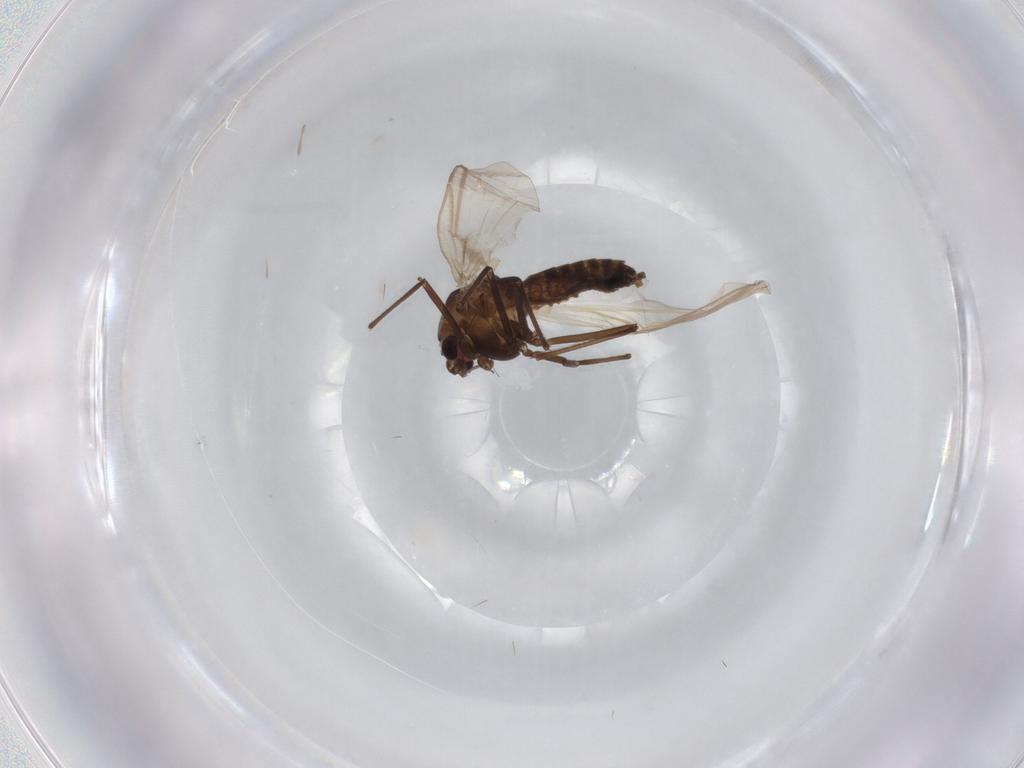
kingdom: Animalia
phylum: Arthropoda
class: Insecta
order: Diptera
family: Chironomidae
